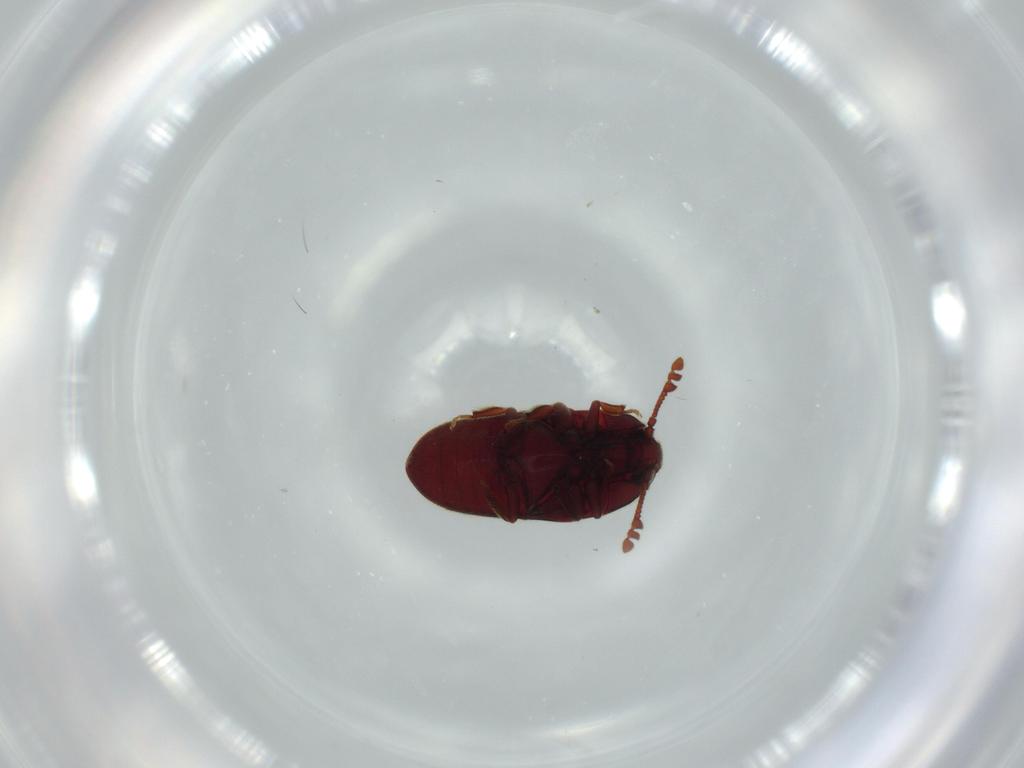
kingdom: Animalia
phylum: Arthropoda
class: Insecta
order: Coleoptera
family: Throscidae
